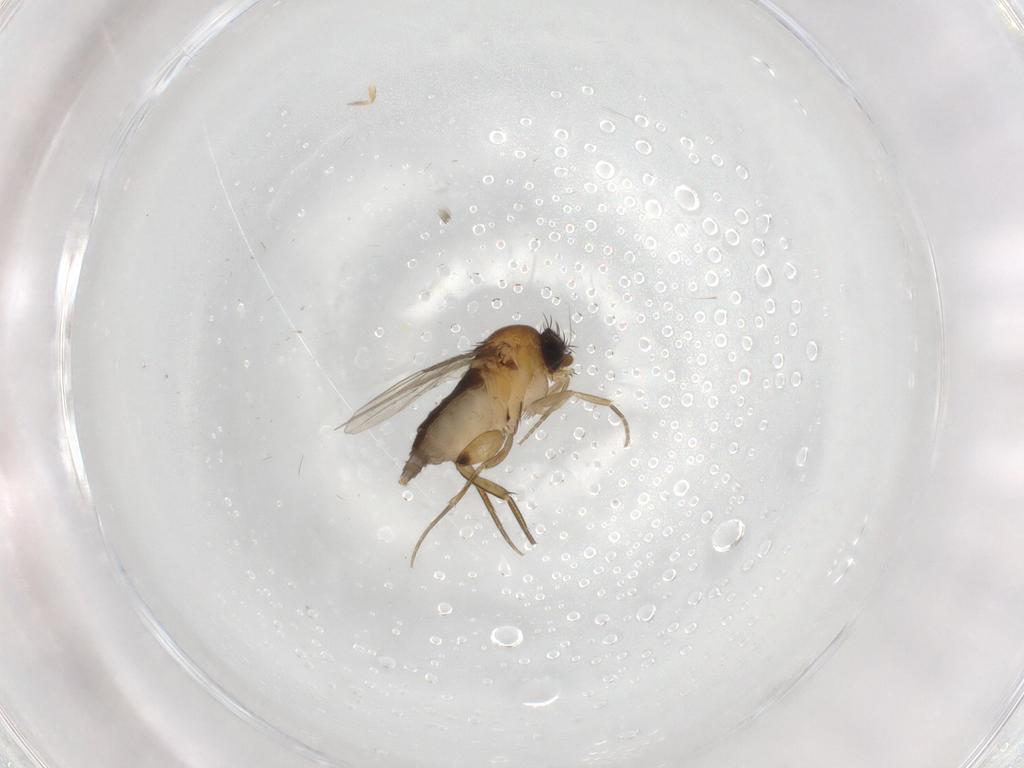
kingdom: Animalia
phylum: Arthropoda
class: Insecta
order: Diptera
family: Phoridae
